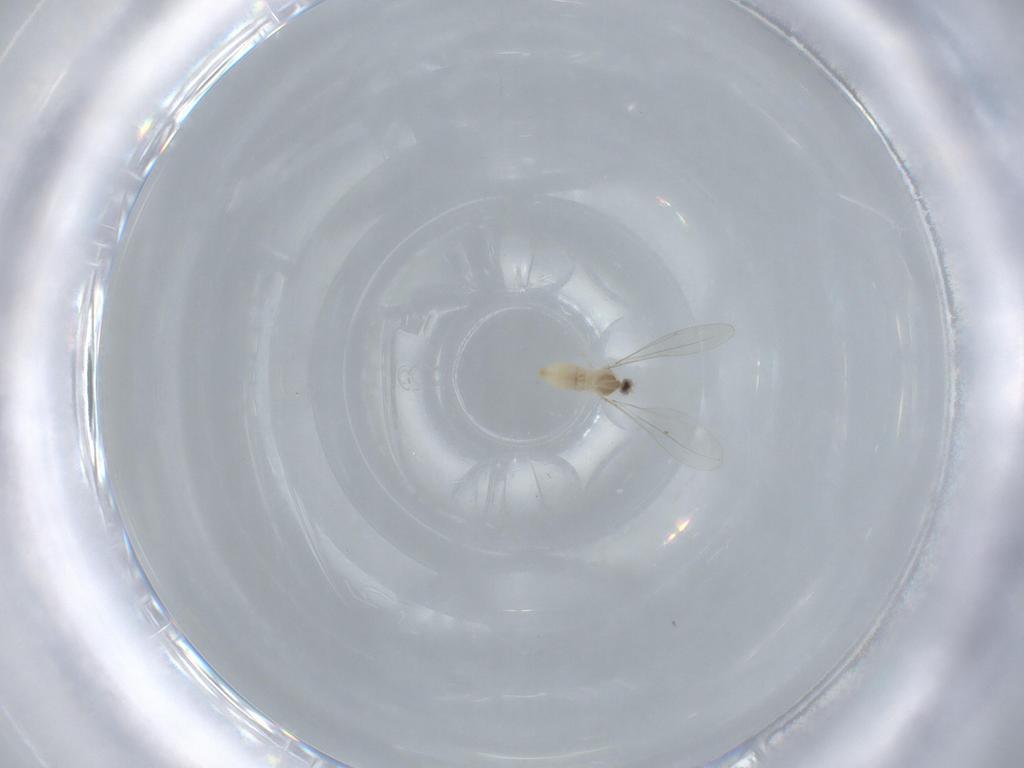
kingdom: Animalia
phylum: Arthropoda
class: Insecta
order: Diptera
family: Cecidomyiidae
